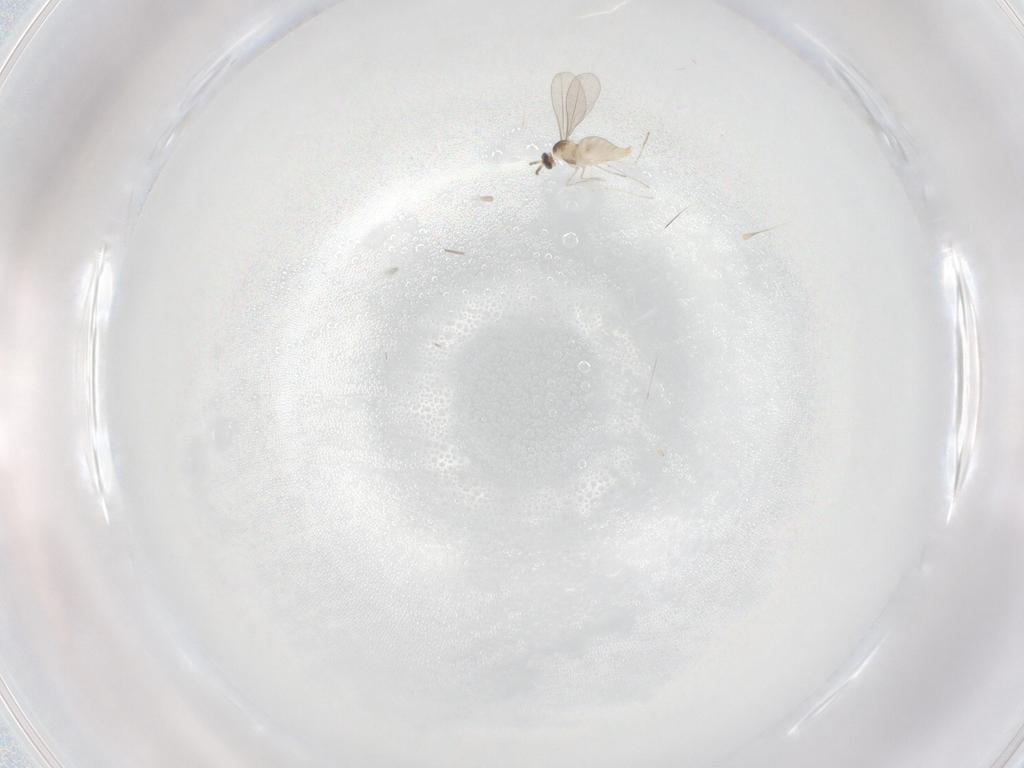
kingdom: Animalia
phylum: Arthropoda
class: Insecta
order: Diptera
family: Cecidomyiidae
